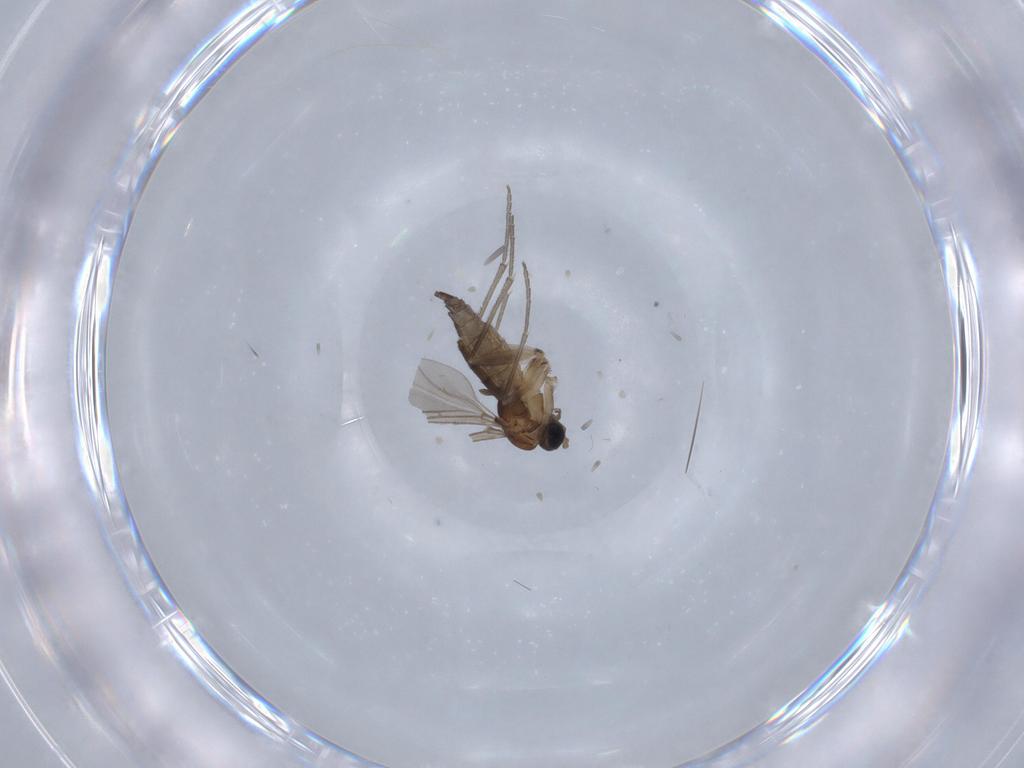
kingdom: Animalia
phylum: Arthropoda
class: Insecta
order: Diptera
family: Sciaridae
